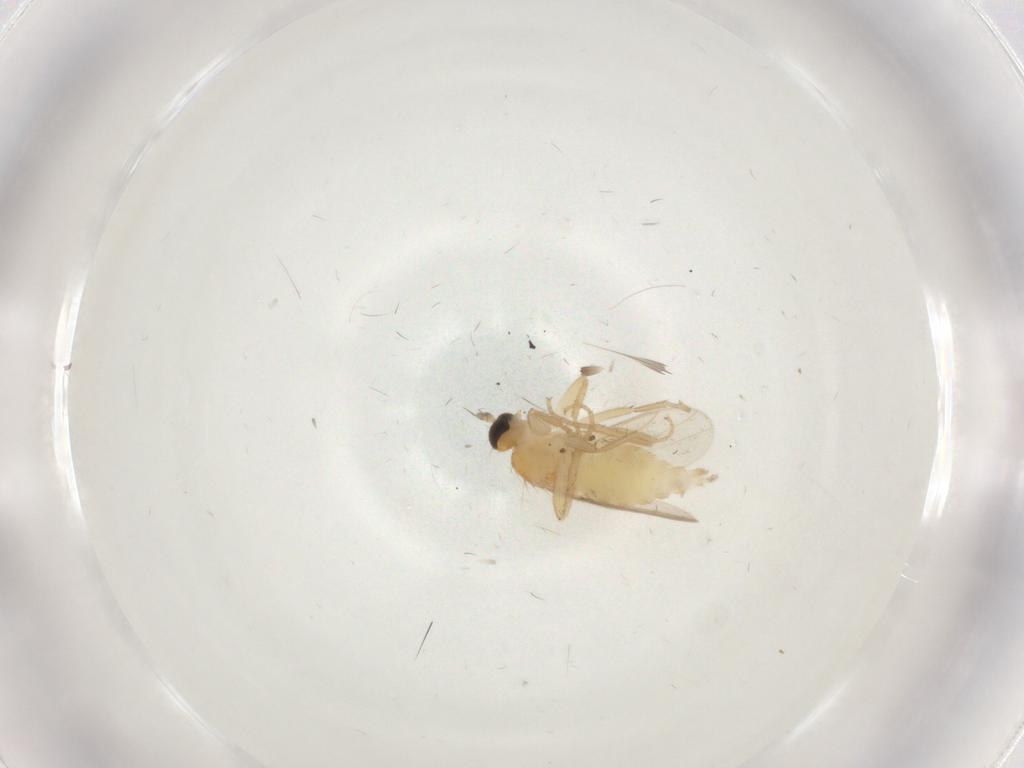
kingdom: Animalia
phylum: Arthropoda
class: Insecta
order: Diptera
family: Hybotidae
